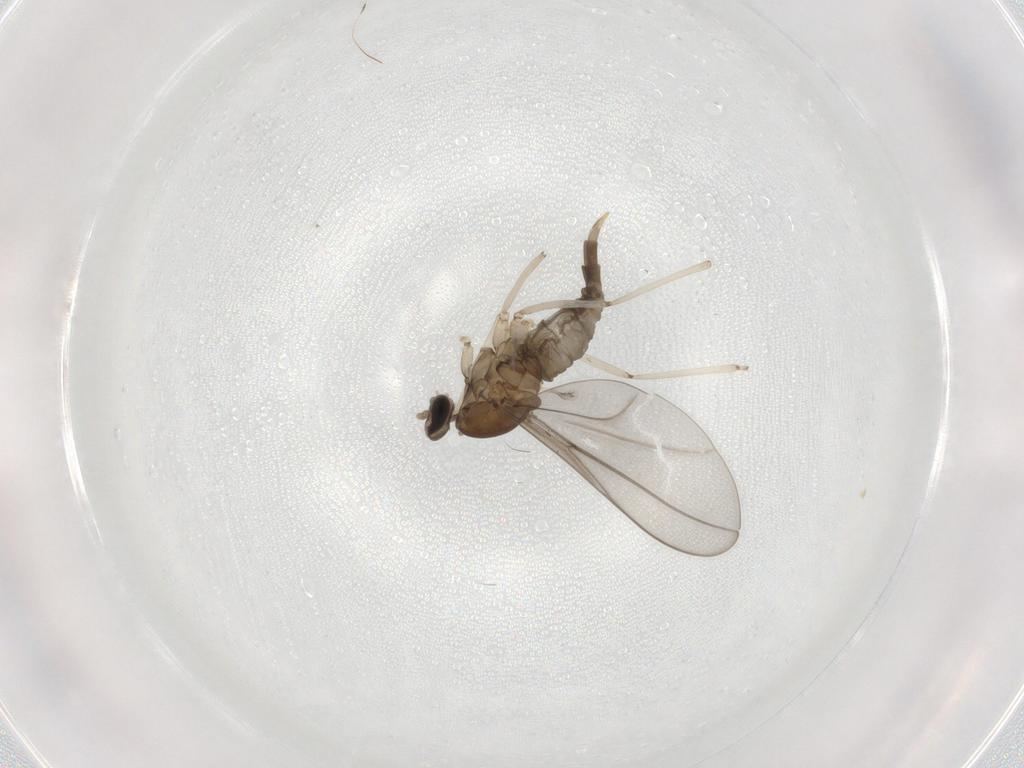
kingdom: Animalia
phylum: Arthropoda
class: Insecta
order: Diptera
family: Cecidomyiidae
